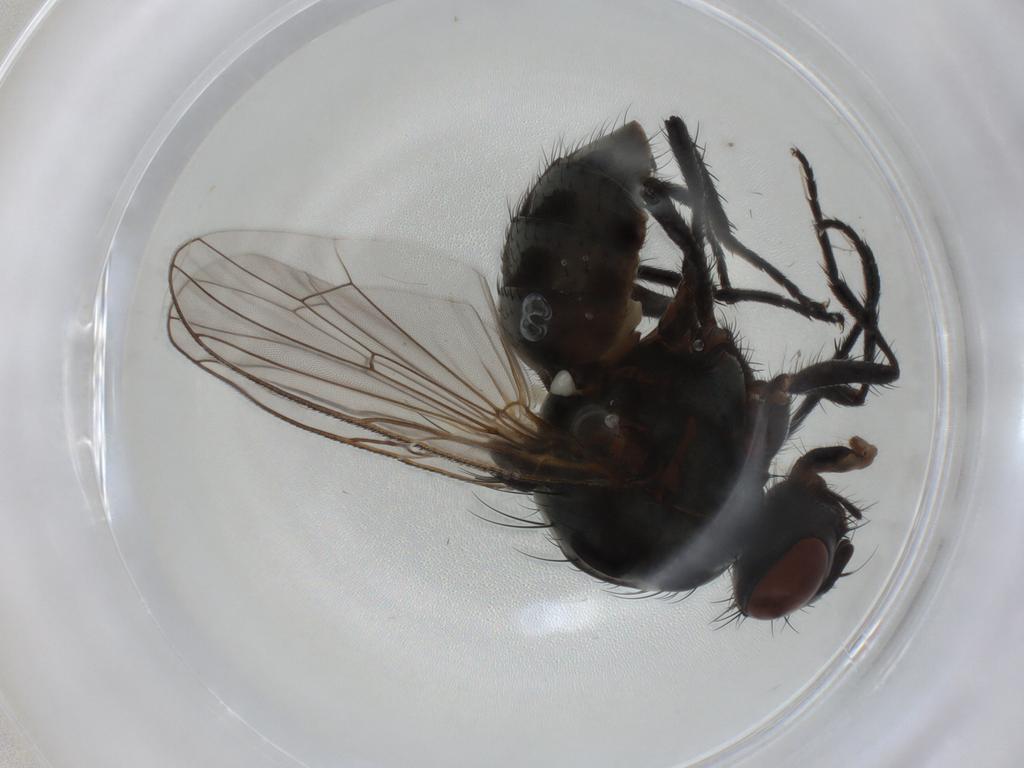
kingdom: Animalia
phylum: Arthropoda
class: Insecta
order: Diptera
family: Anthomyiidae
